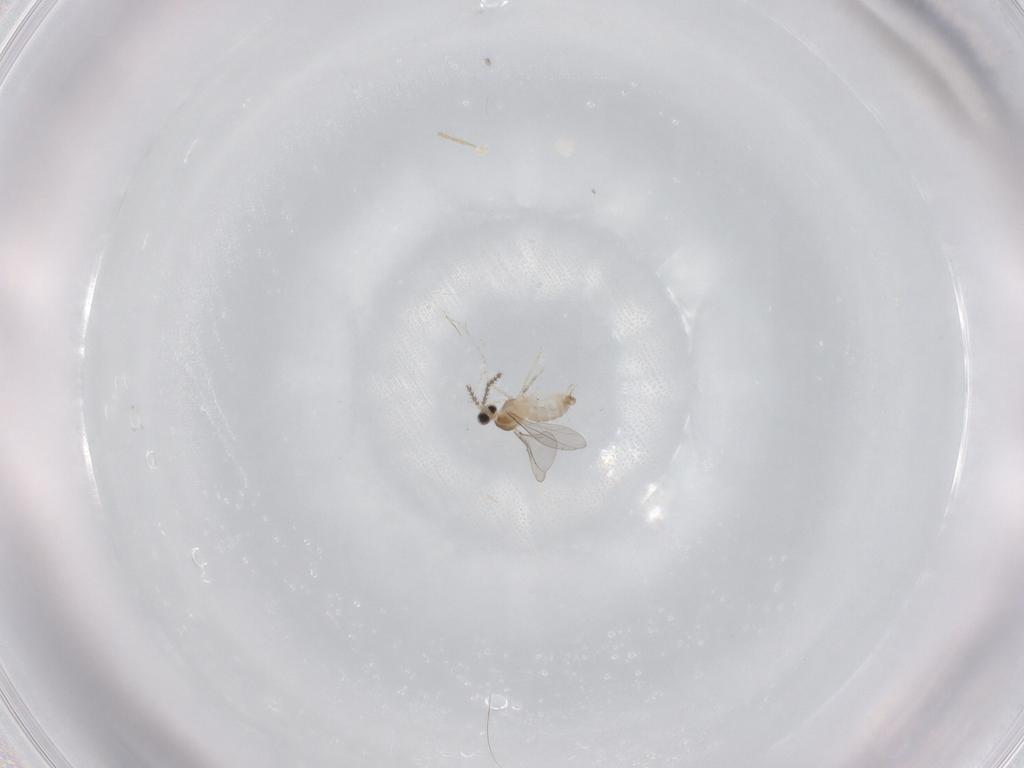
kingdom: Animalia
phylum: Arthropoda
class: Insecta
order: Diptera
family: Cecidomyiidae
